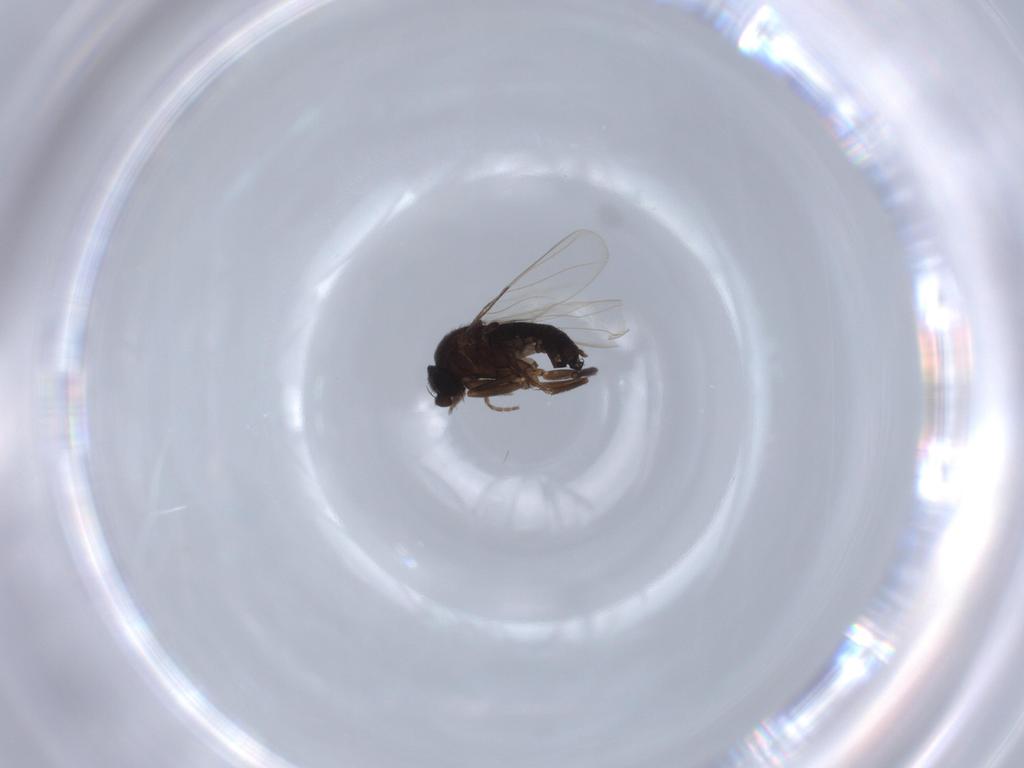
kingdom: Animalia
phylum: Arthropoda
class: Insecta
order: Diptera
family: Phoridae
